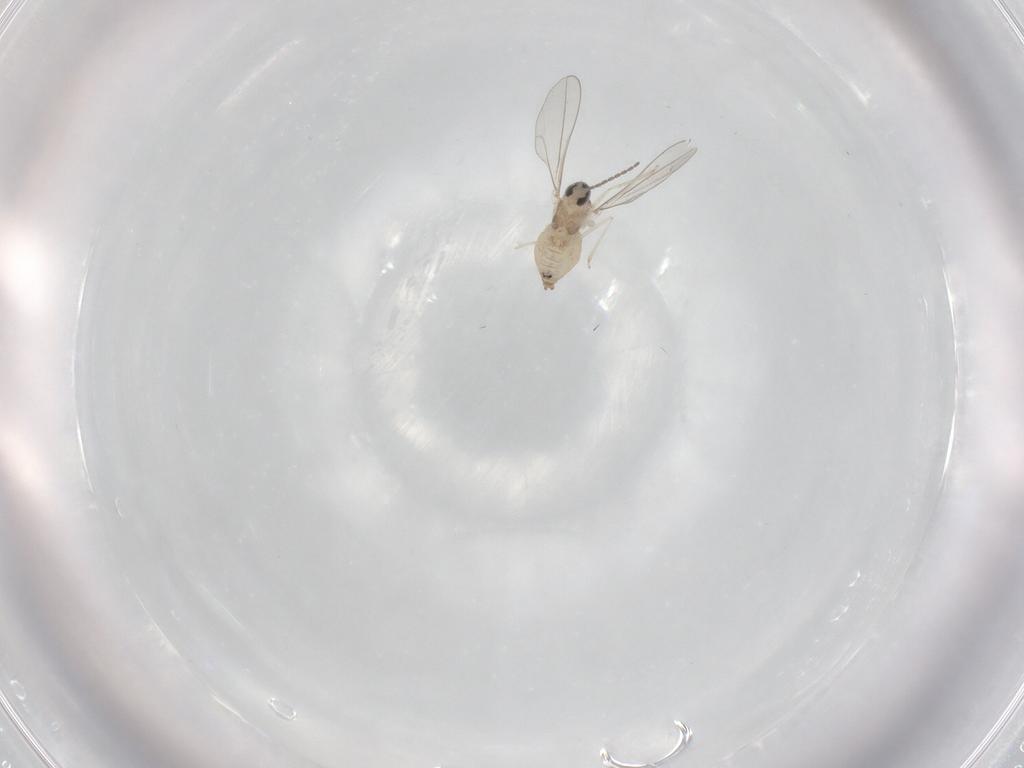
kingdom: Animalia
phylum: Arthropoda
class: Insecta
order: Diptera
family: Cecidomyiidae
